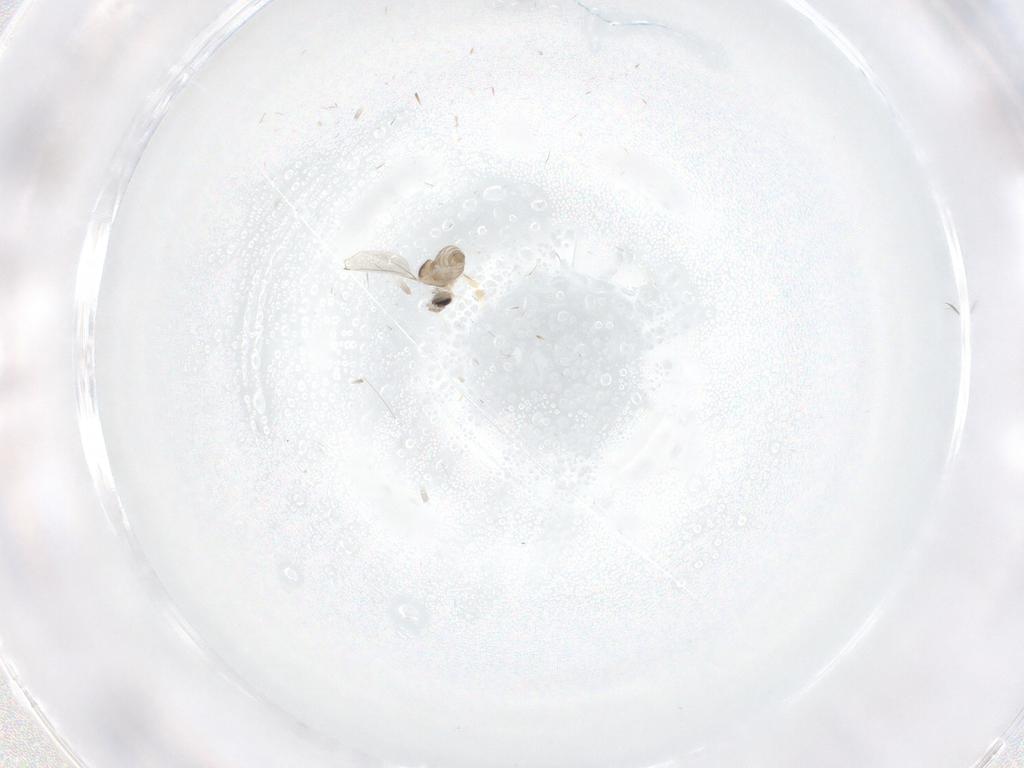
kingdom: Animalia
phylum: Arthropoda
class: Insecta
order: Diptera
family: Cecidomyiidae
